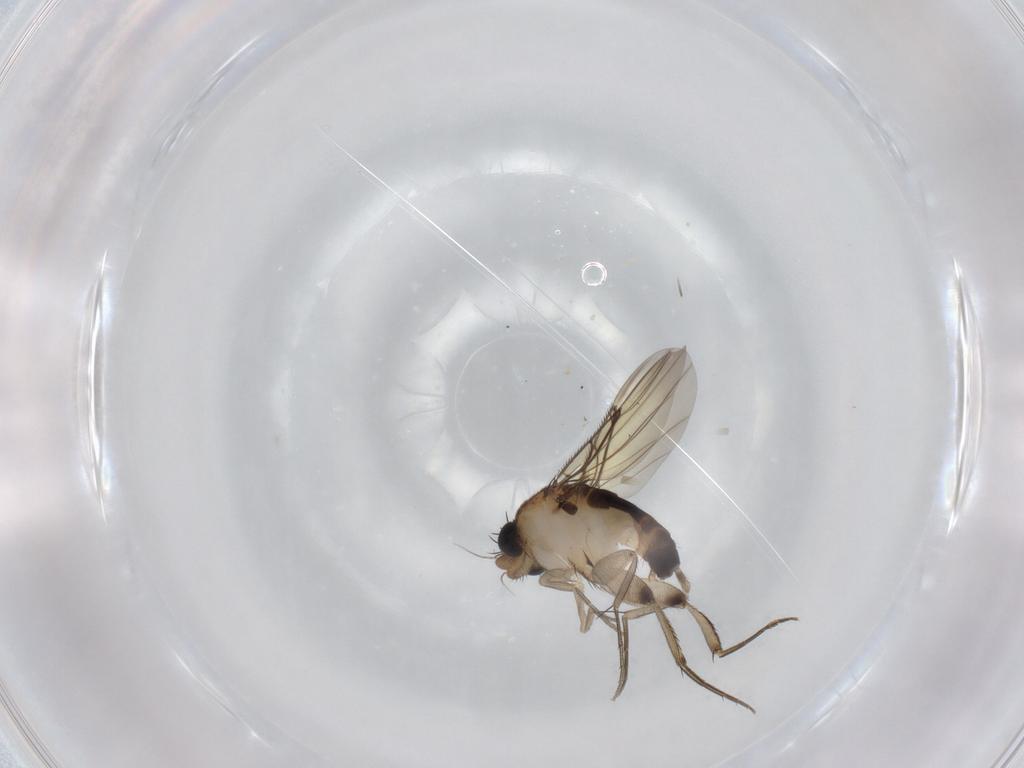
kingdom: Animalia
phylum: Arthropoda
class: Insecta
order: Diptera
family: Phoridae
